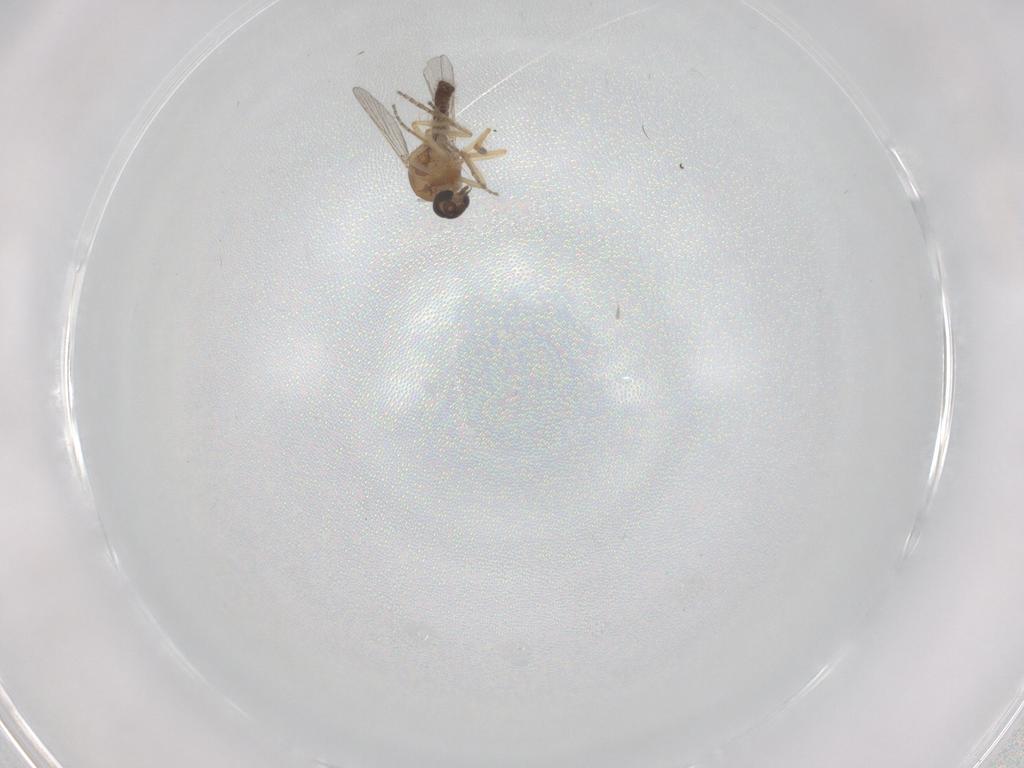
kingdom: Animalia
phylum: Arthropoda
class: Insecta
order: Diptera
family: Ceratopogonidae
